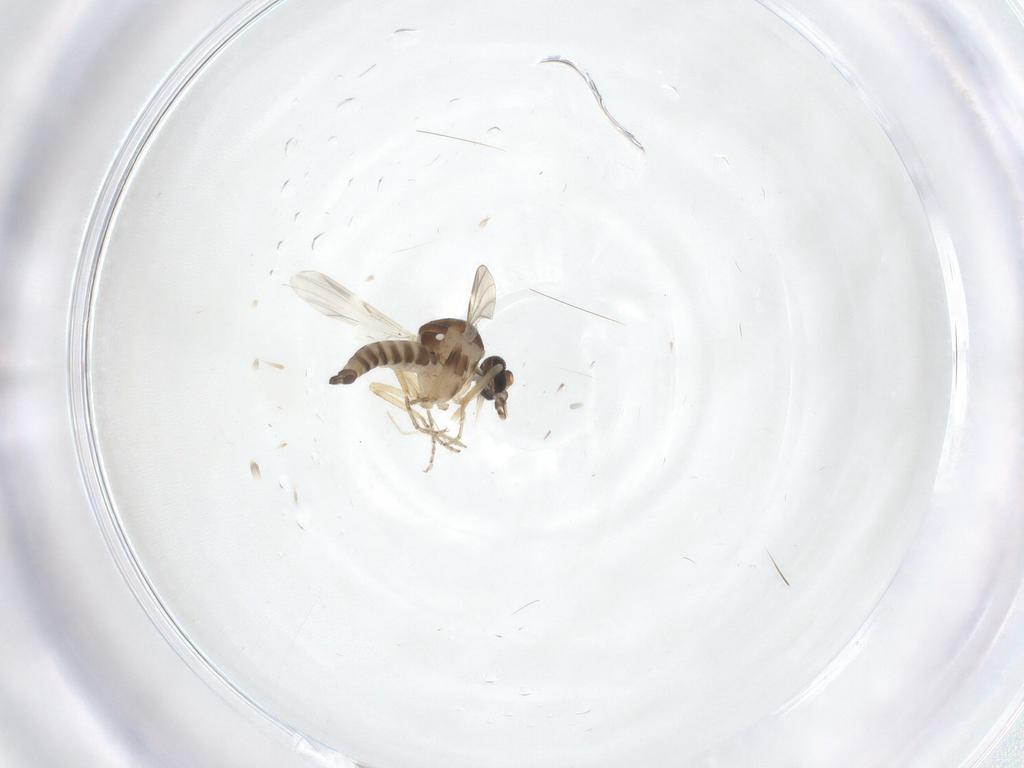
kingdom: Animalia
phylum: Arthropoda
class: Insecta
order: Diptera
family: Ceratopogonidae
